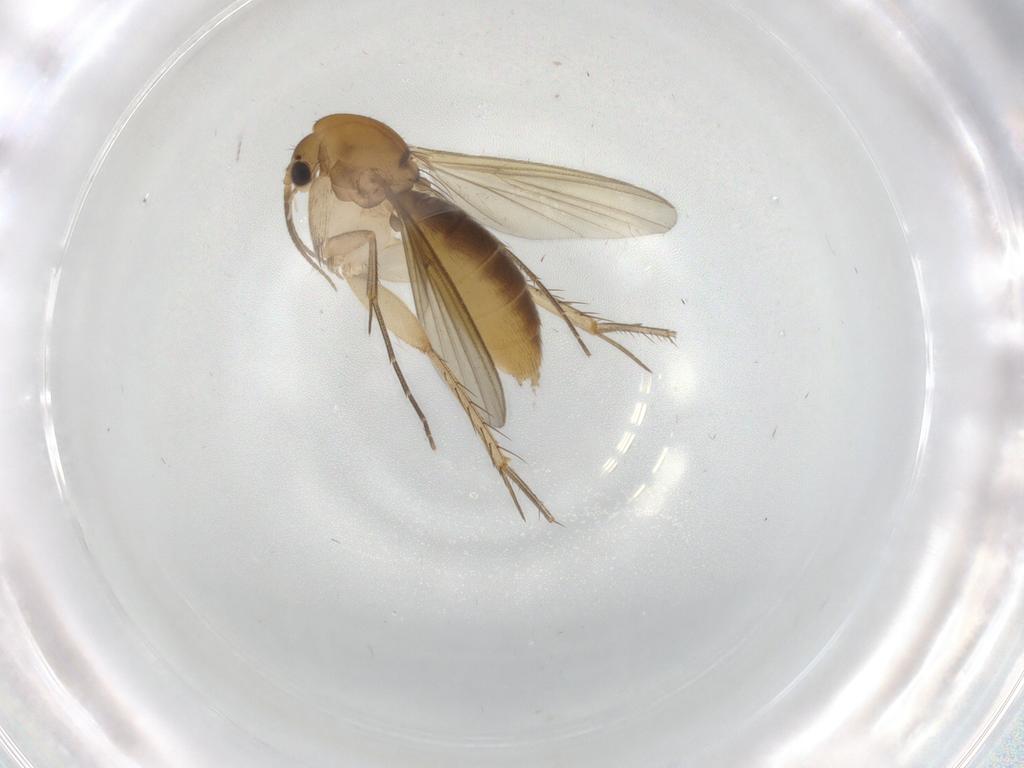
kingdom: Animalia
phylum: Arthropoda
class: Insecta
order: Diptera
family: Mycetophilidae
